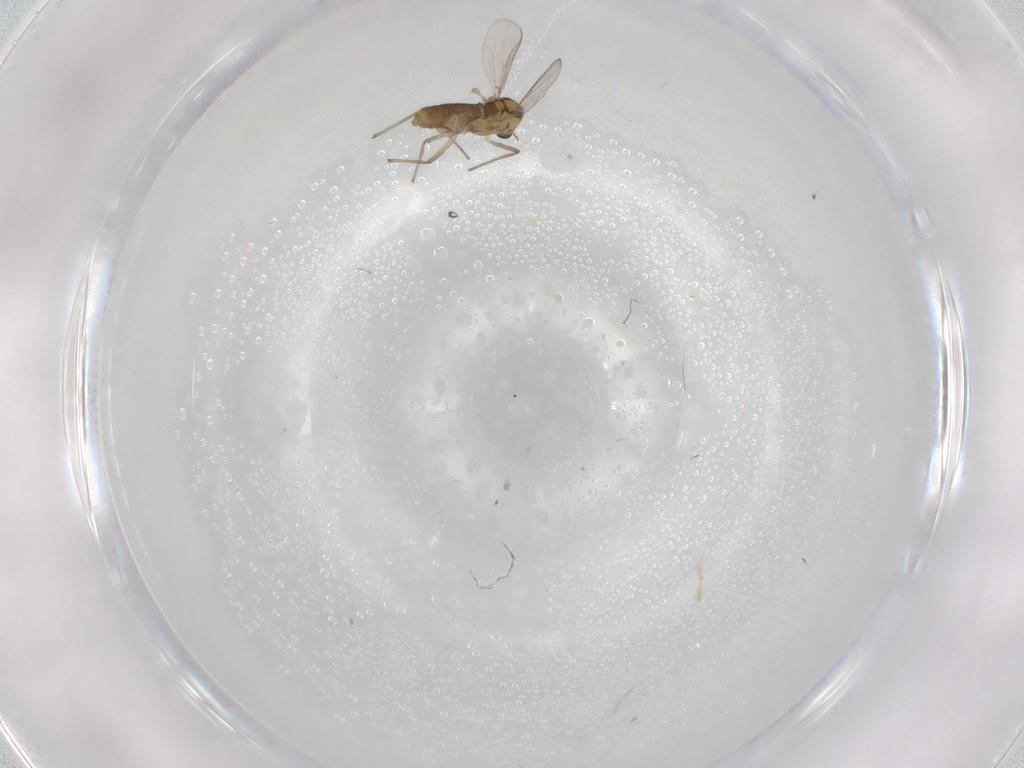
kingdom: Animalia
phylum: Arthropoda
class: Insecta
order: Diptera
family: Chironomidae
